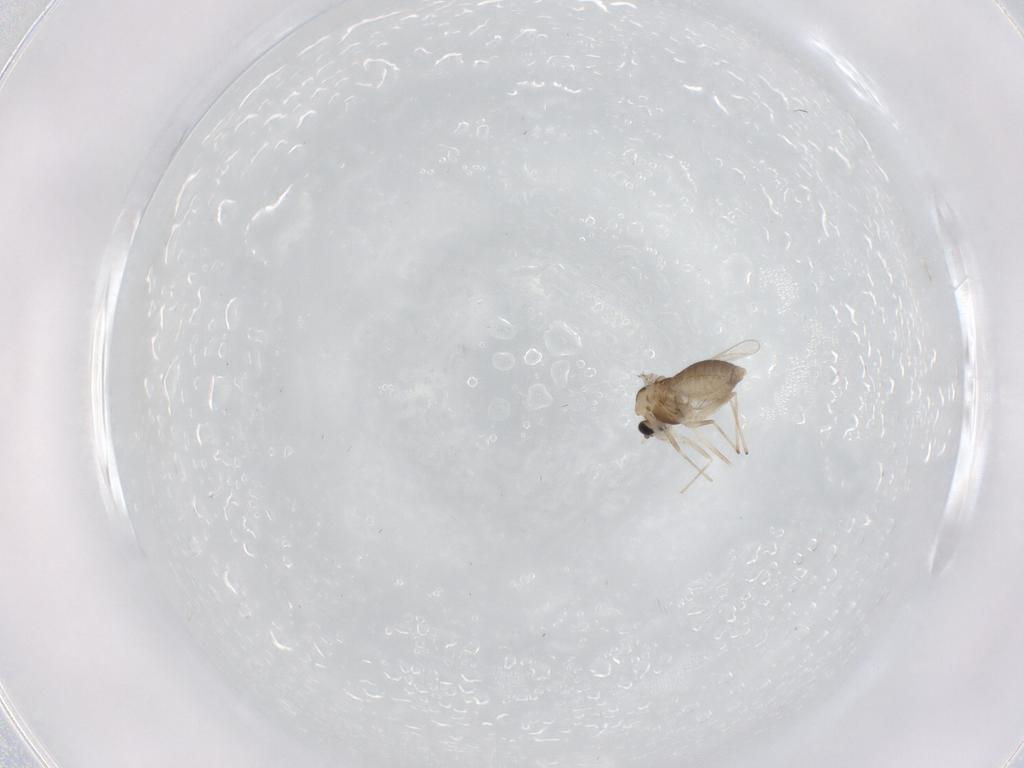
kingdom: Animalia
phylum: Arthropoda
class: Insecta
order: Diptera
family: Chironomidae
